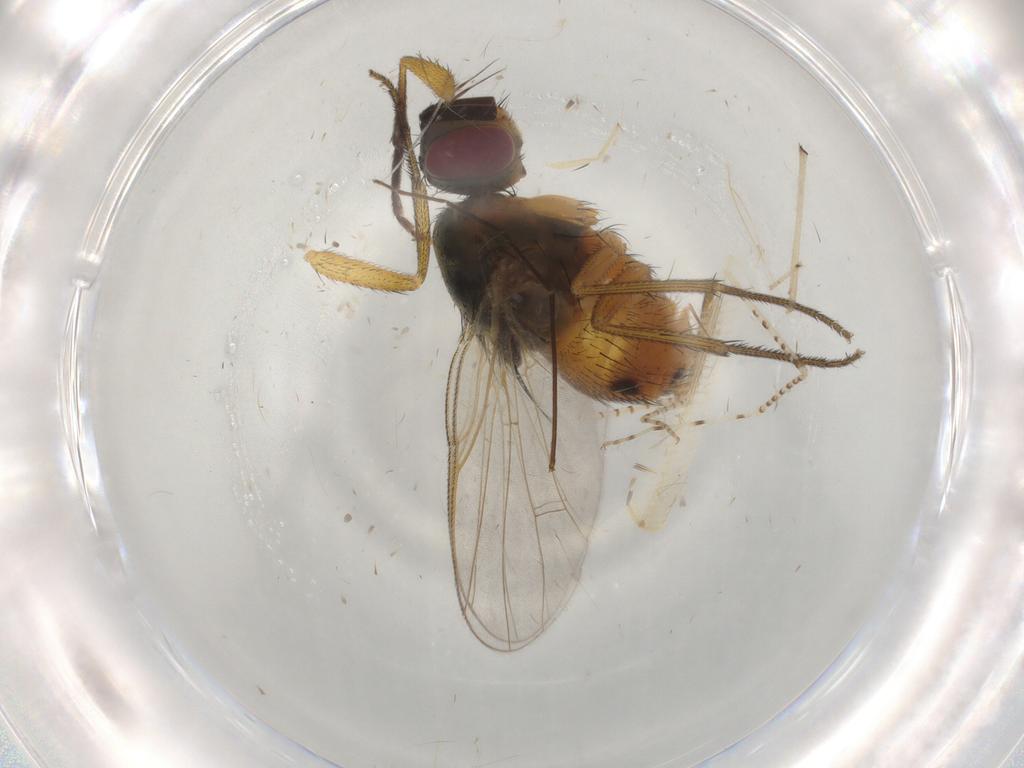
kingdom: Animalia
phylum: Arthropoda
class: Insecta
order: Diptera
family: Muscidae
